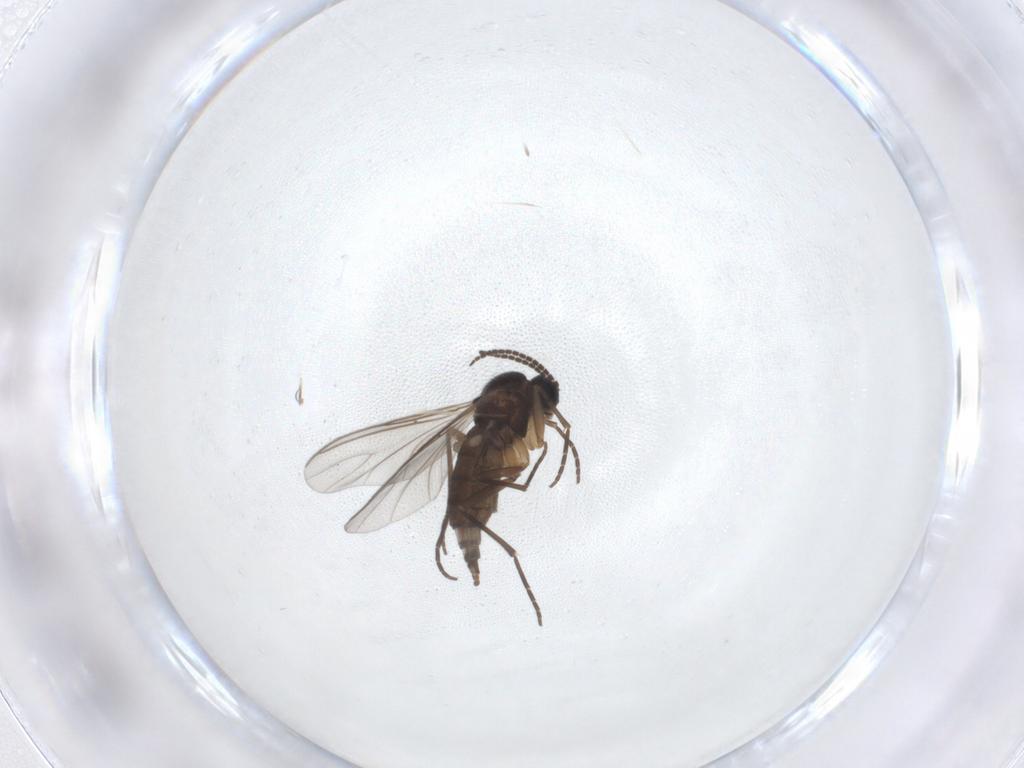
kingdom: Animalia
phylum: Arthropoda
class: Insecta
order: Diptera
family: Sciaridae
